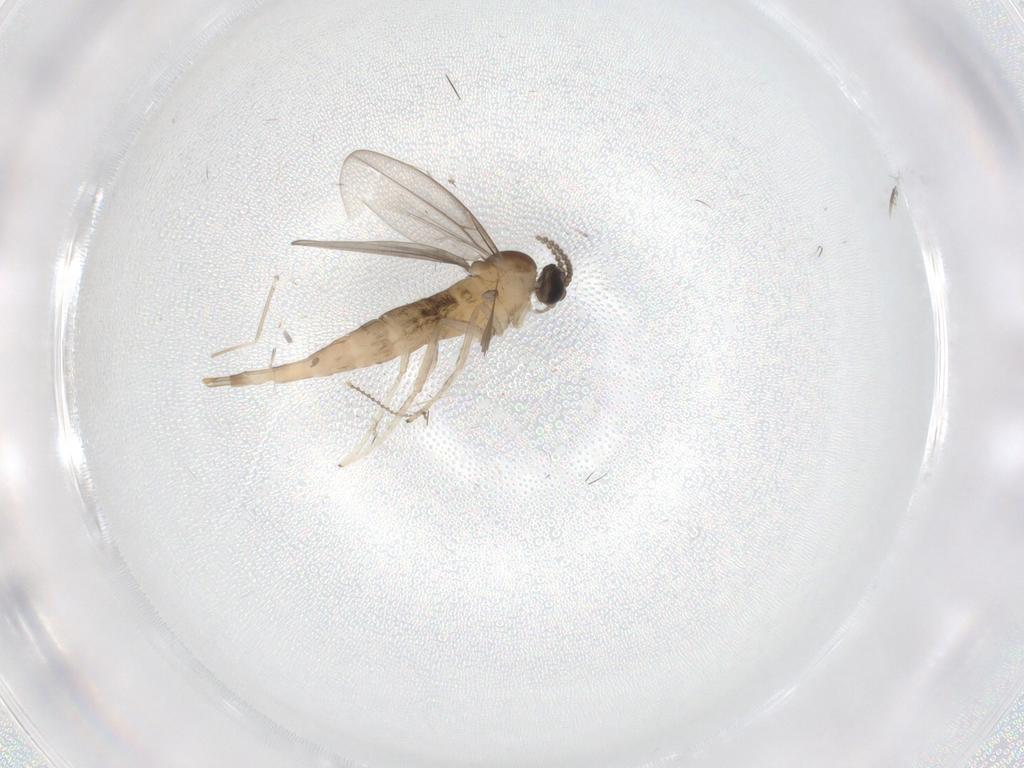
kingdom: Animalia
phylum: Arthropoda
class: Insecta
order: Diptera
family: Cecidomyiidae
